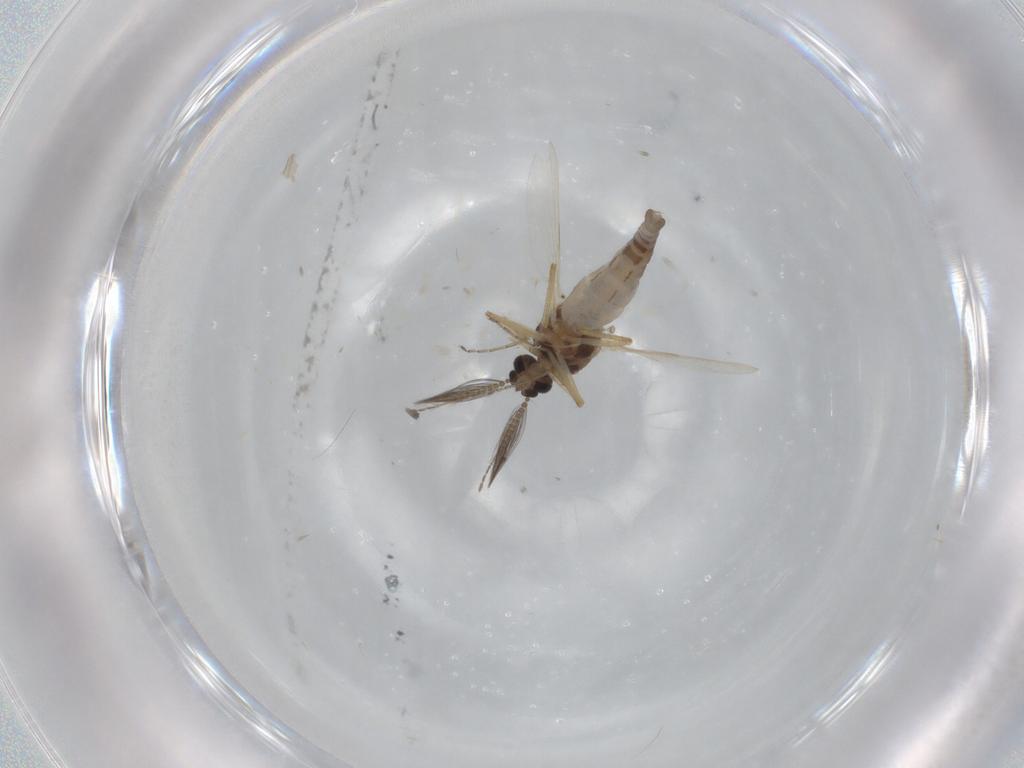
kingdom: Animalia
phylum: Arthropoda
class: Insecta
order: Diptera
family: Ceratopogonidae
